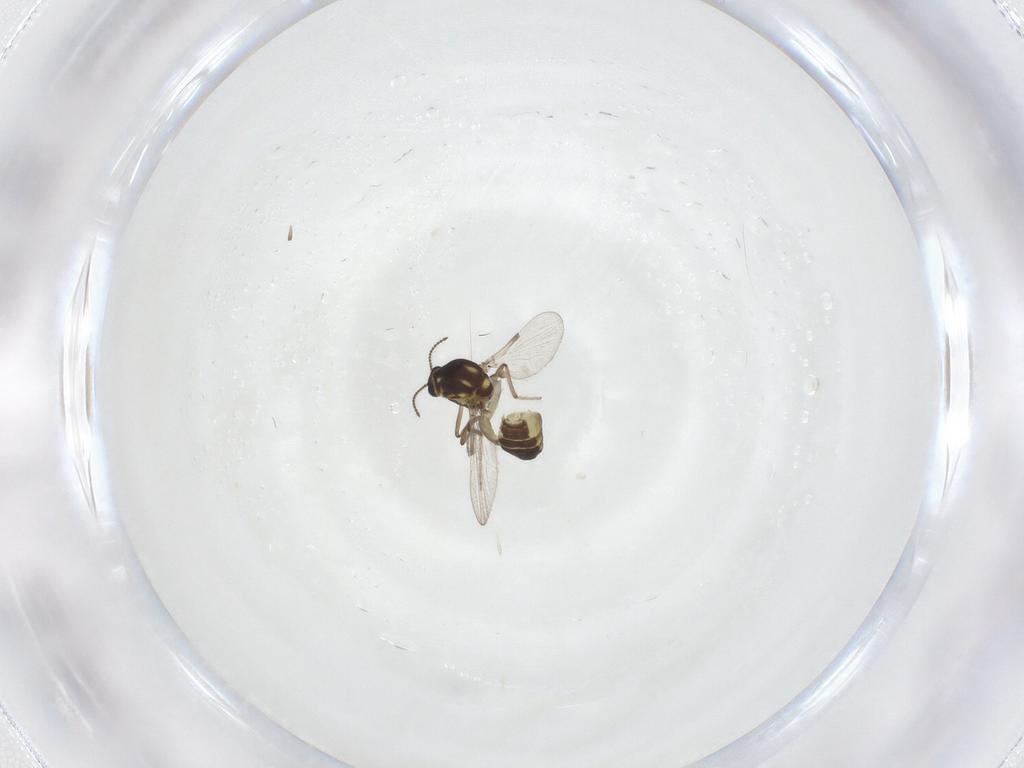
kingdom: Animalia
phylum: Arthropoda
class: Insecta
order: Diptera
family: Ceratopogonidae
